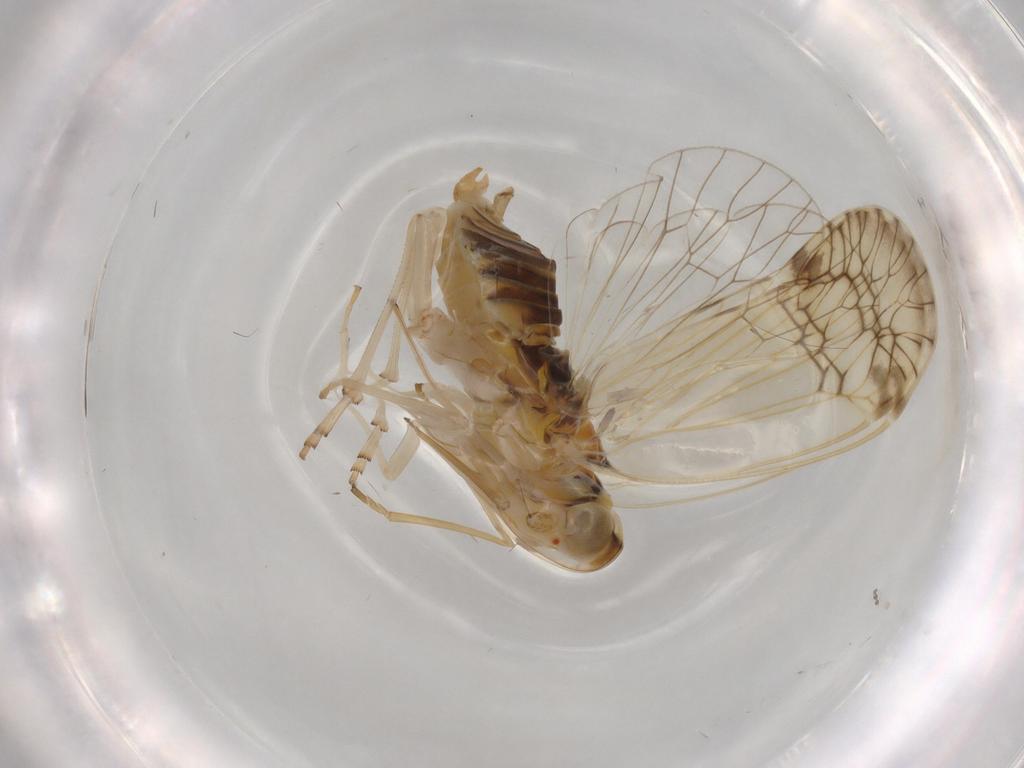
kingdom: Animalia
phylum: Arthropoda
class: Insecta
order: Hemiptera
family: Kinnaridae
